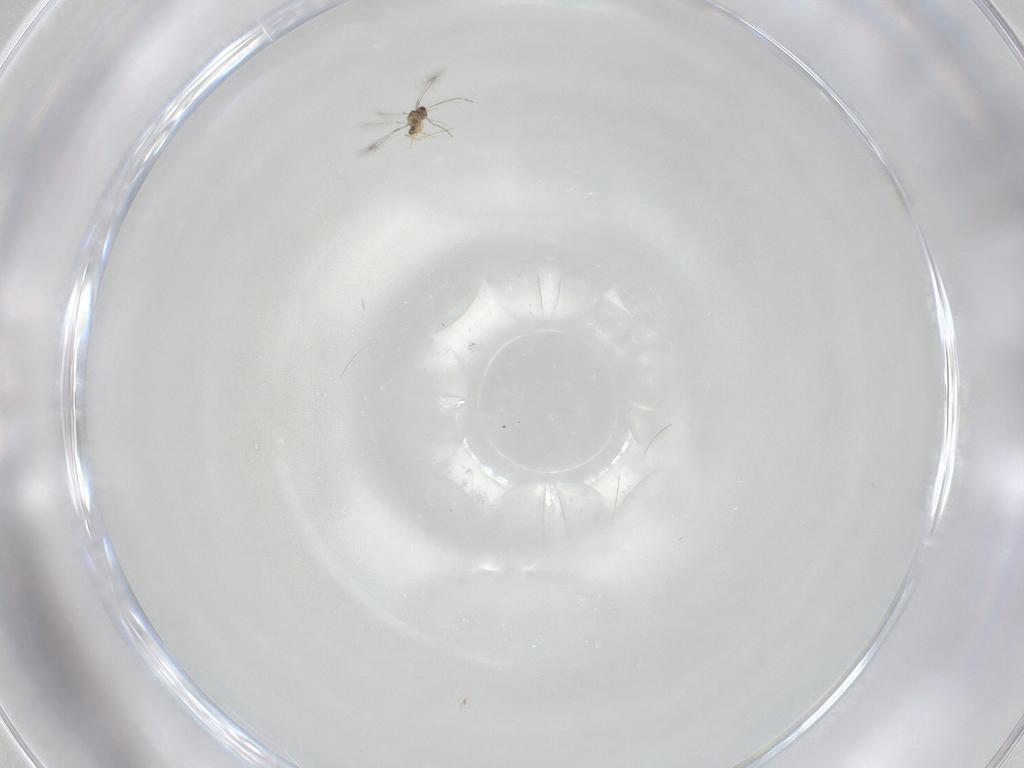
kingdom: Animalia
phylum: Arthropoda
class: Insecta
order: Hymenoptera
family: Mymaridae
